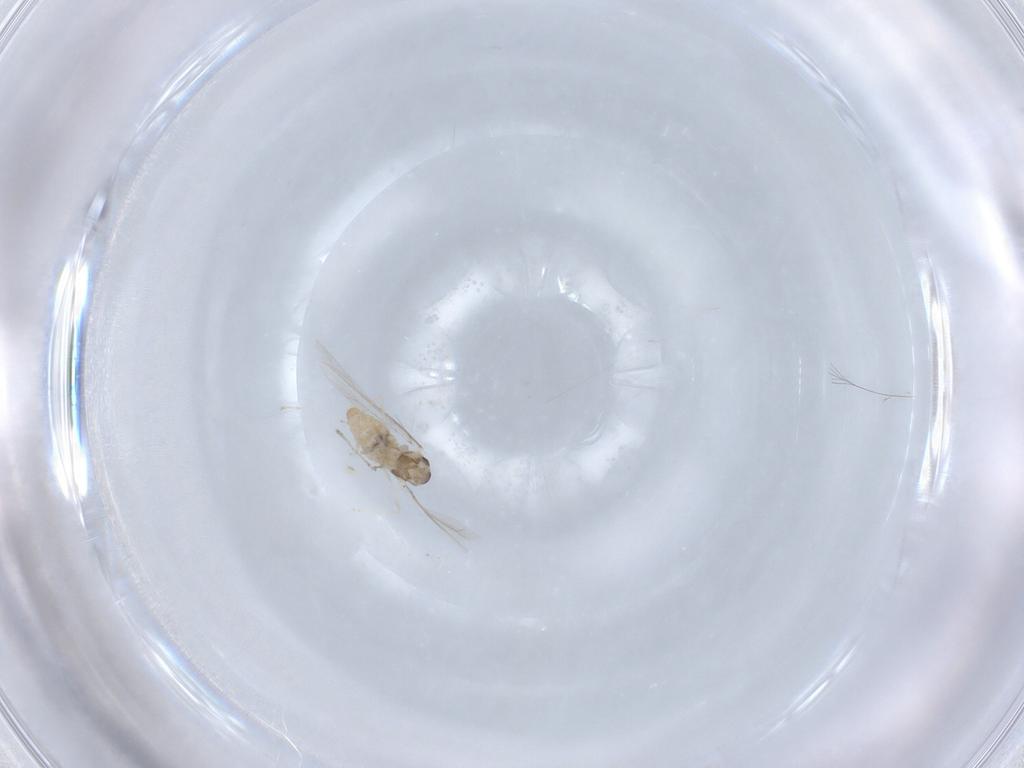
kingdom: Animalia
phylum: Arthropoda
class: Insecta
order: Diptera
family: Cecidomyiidae
